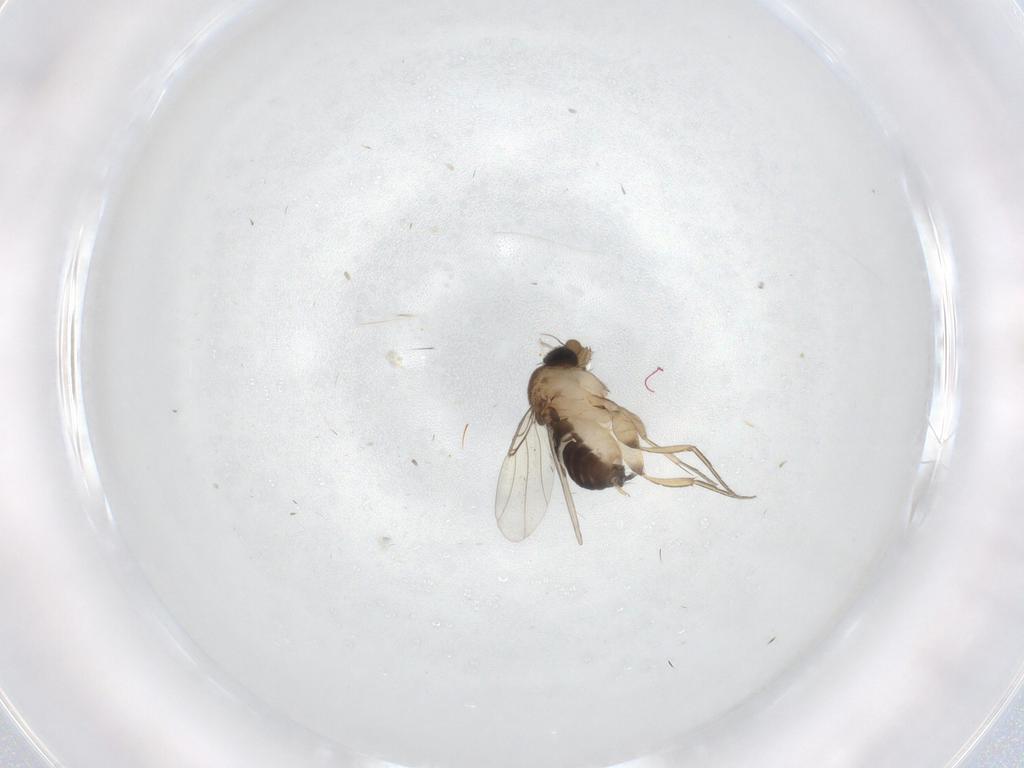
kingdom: Animalia
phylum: Arthropoda
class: Insecta
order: Diptera
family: Phoridae
